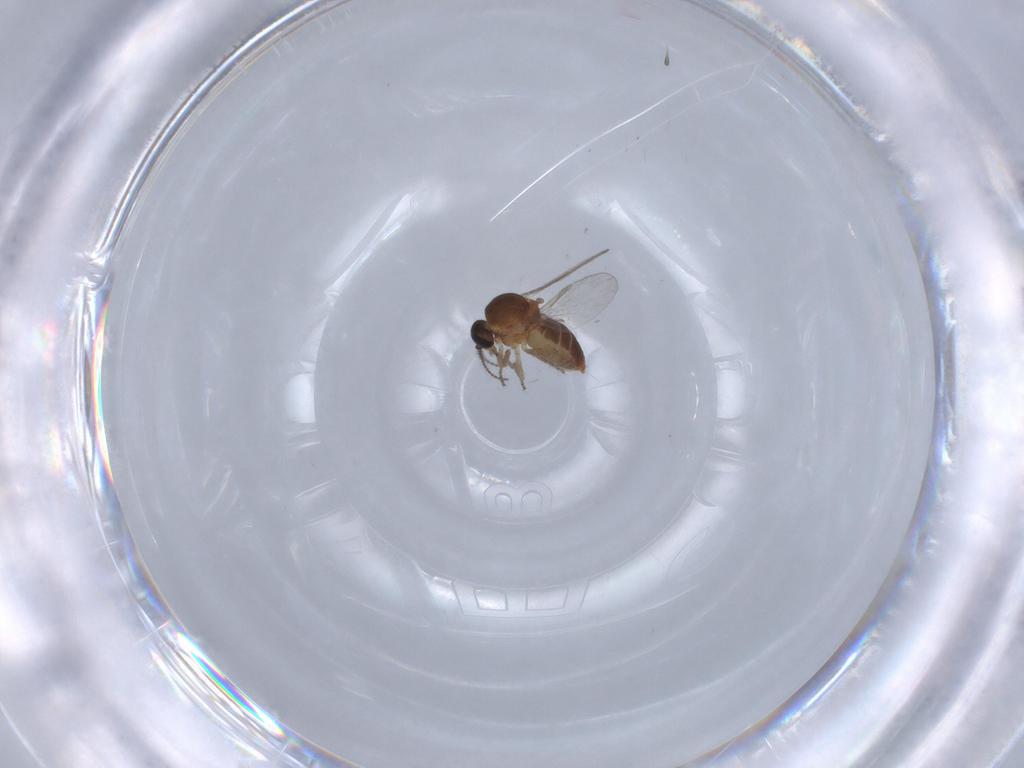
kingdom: Animalia
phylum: Arthropoda
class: Insecta
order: Diptera
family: Ceratopogonidae
